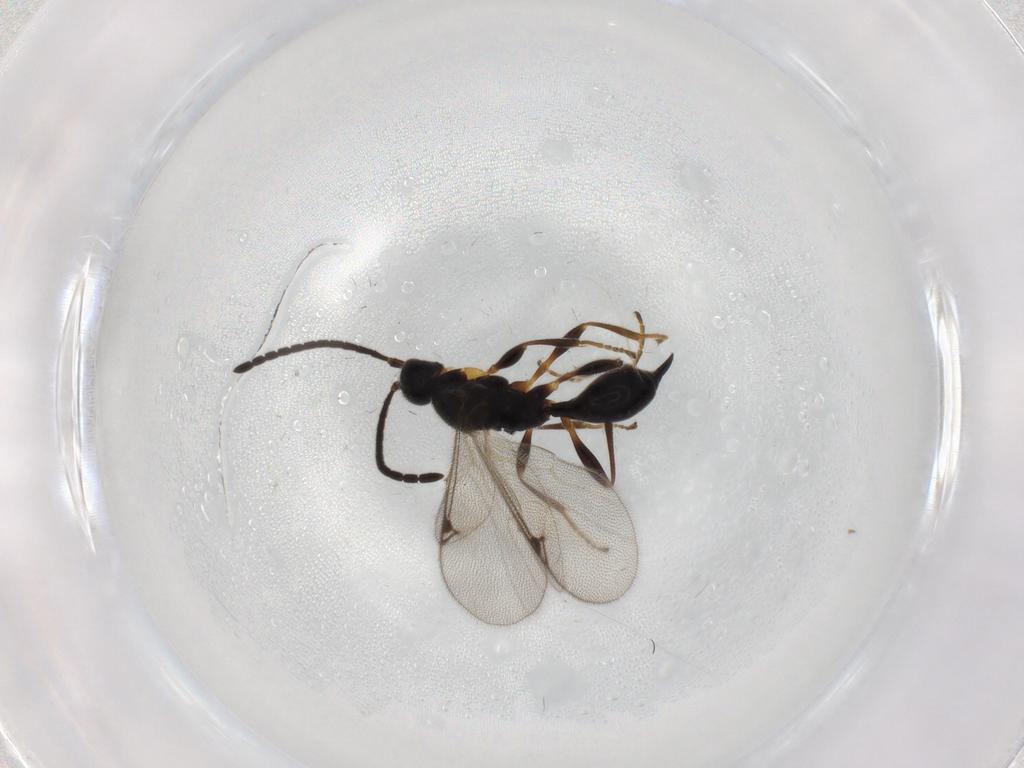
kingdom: Animalia
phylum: Arthropoda
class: Insecta
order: Hymenoptera
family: Proctotrupidae
